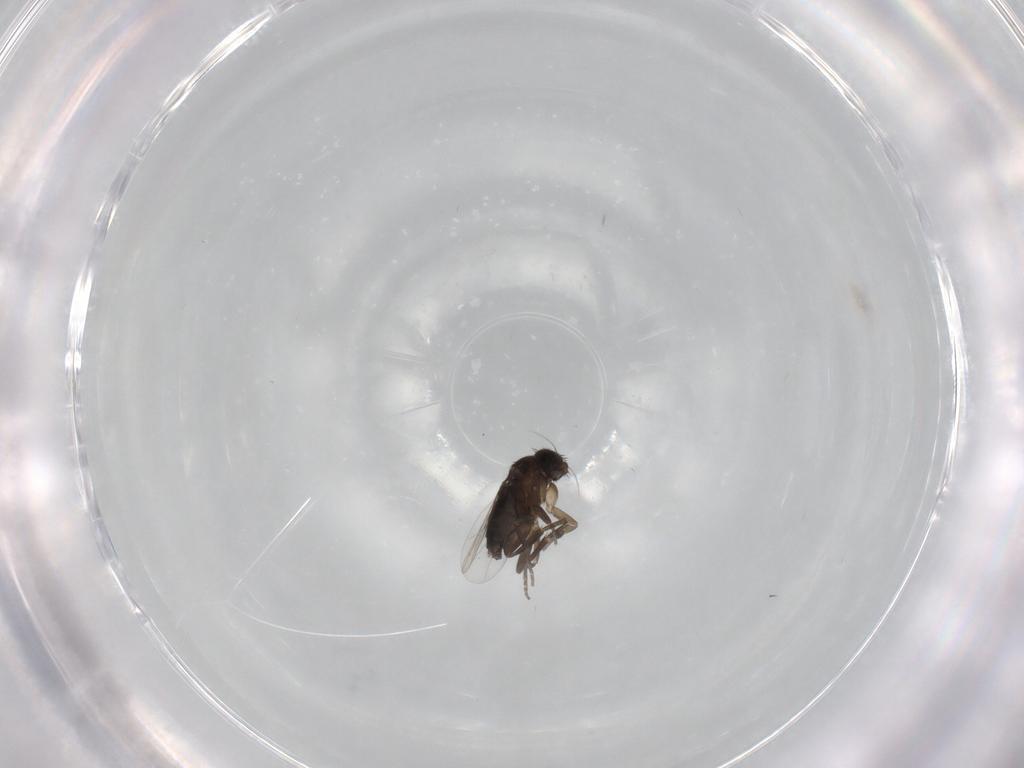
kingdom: Animalia
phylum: Arthropoda
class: Insecta
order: Diptera
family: Phoridae
